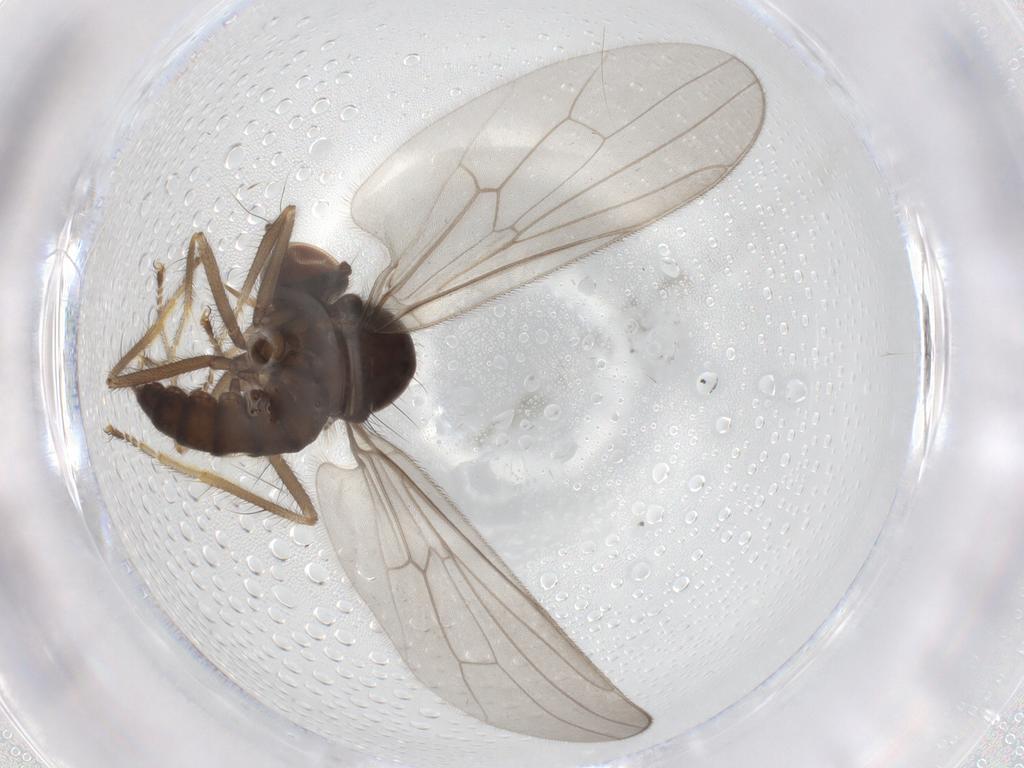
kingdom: Animalia
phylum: Arthropoda
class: Insecta
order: Diptera
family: Hybotidae
